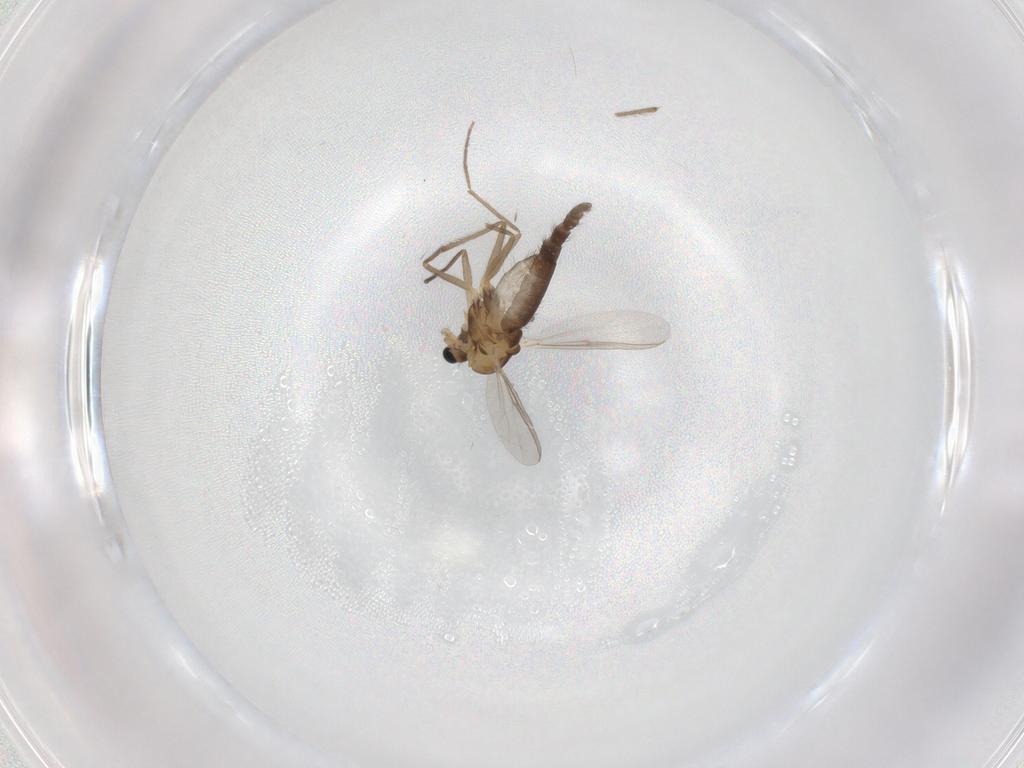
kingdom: Animalia
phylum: Arthropoda
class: Insecta
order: Diptera
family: Chironomidae
